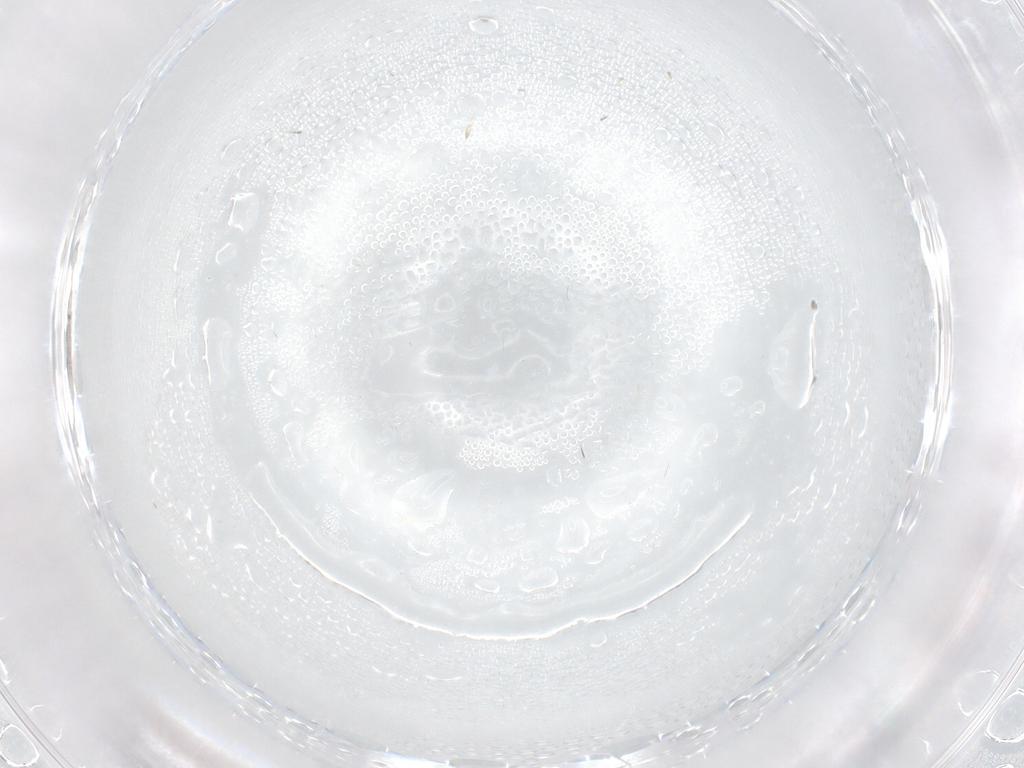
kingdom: Animalia
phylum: Arthropoda
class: Insecta
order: Diptera
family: Cecidomyiidae
